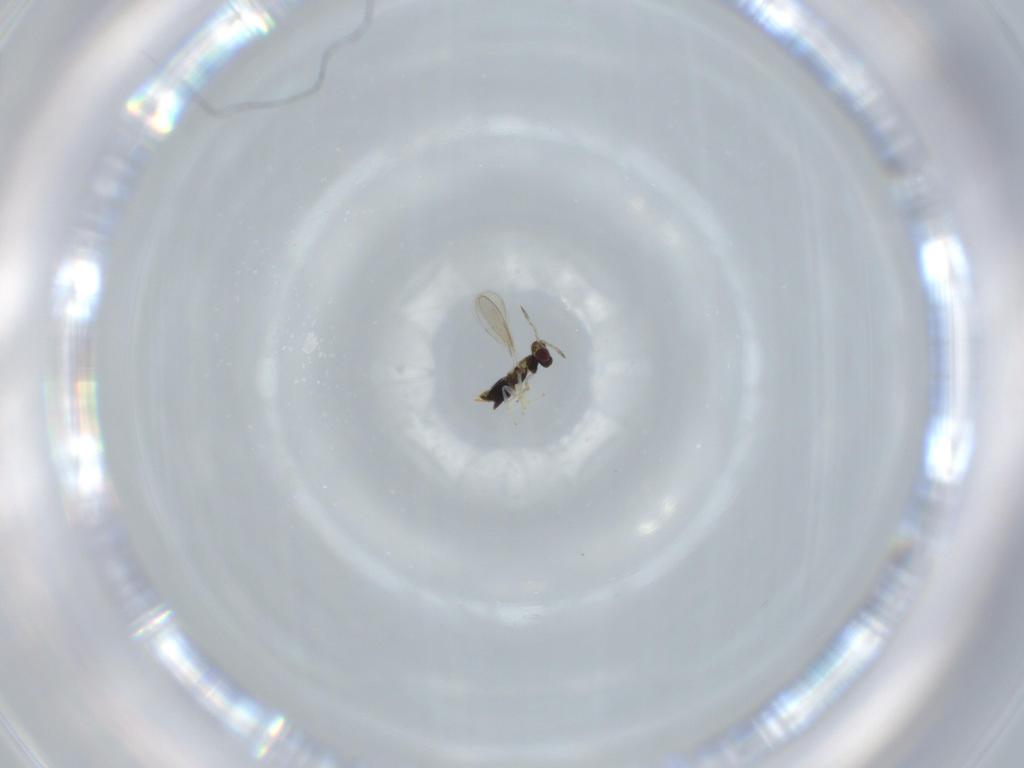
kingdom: Animalia
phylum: Arthropoda
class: Insecta
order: Hymenoptera
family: Aphelinidae
